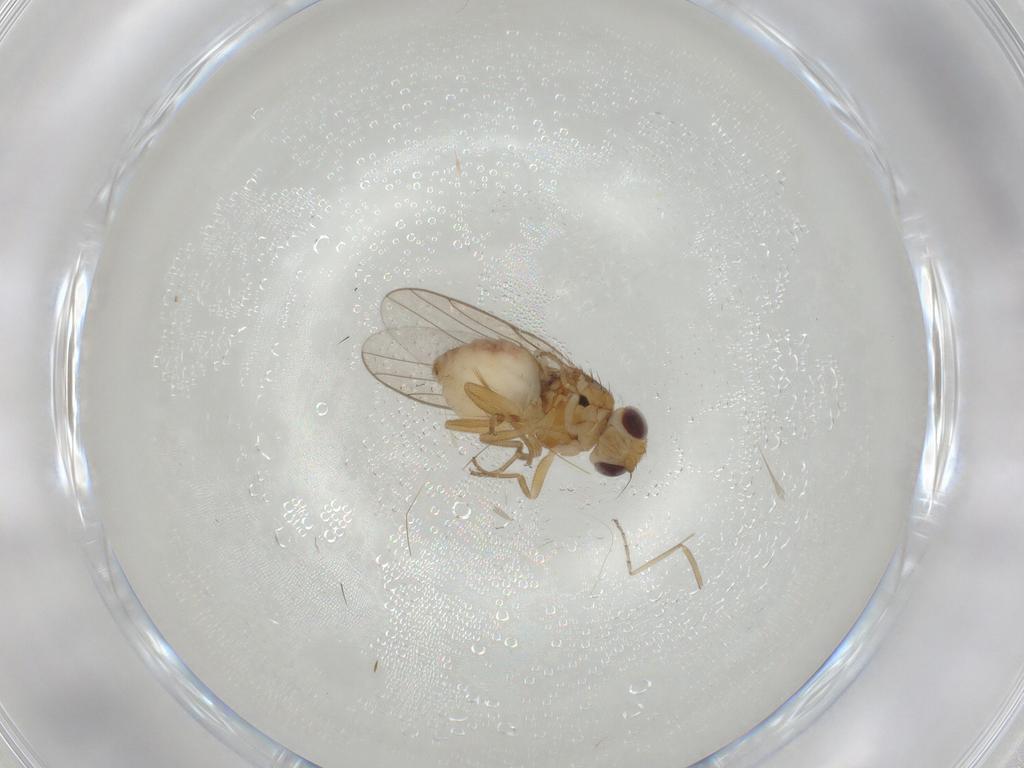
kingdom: Animalia
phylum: Arthropoda
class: Insecta
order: Diptera
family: Chloropidae
